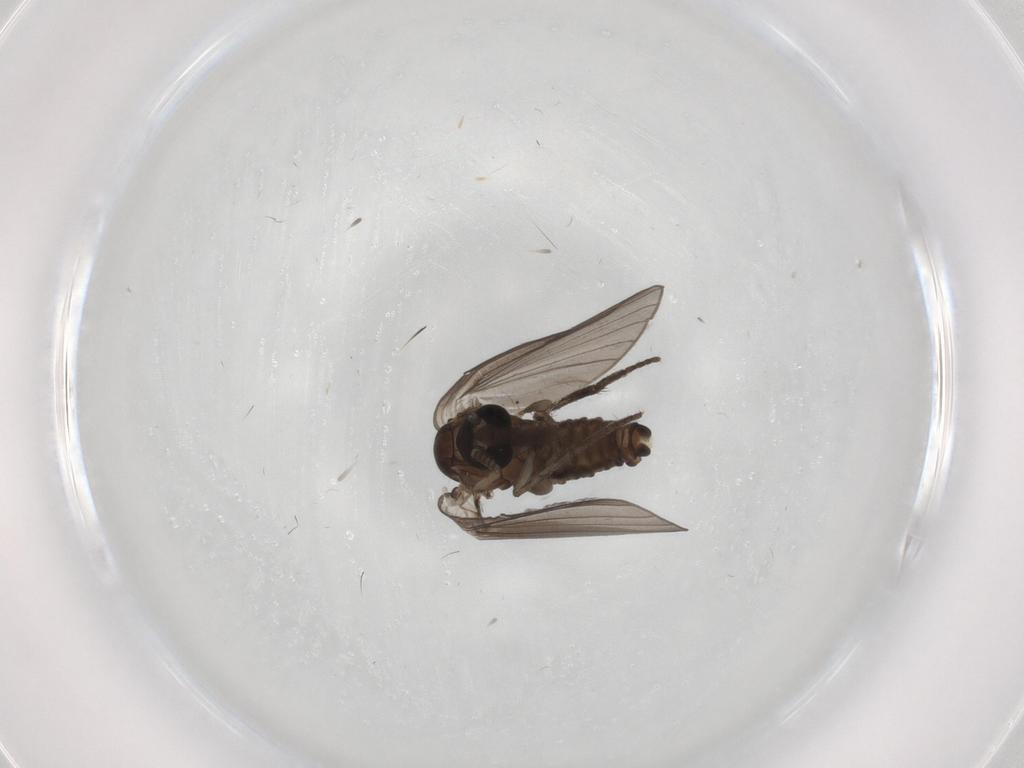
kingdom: Animalia
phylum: Arthropoda
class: Insecta
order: Diptera
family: Psychodidae
